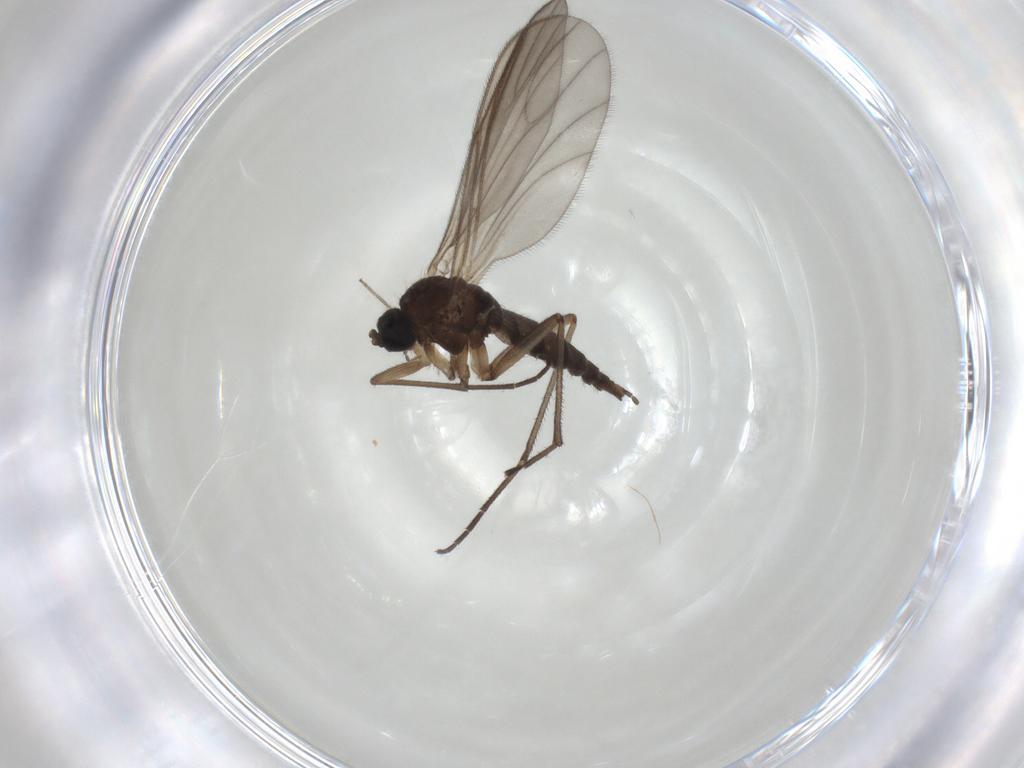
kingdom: Animalia
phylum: Arthropoda
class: Insecta
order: Diptera
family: Sciaridae
